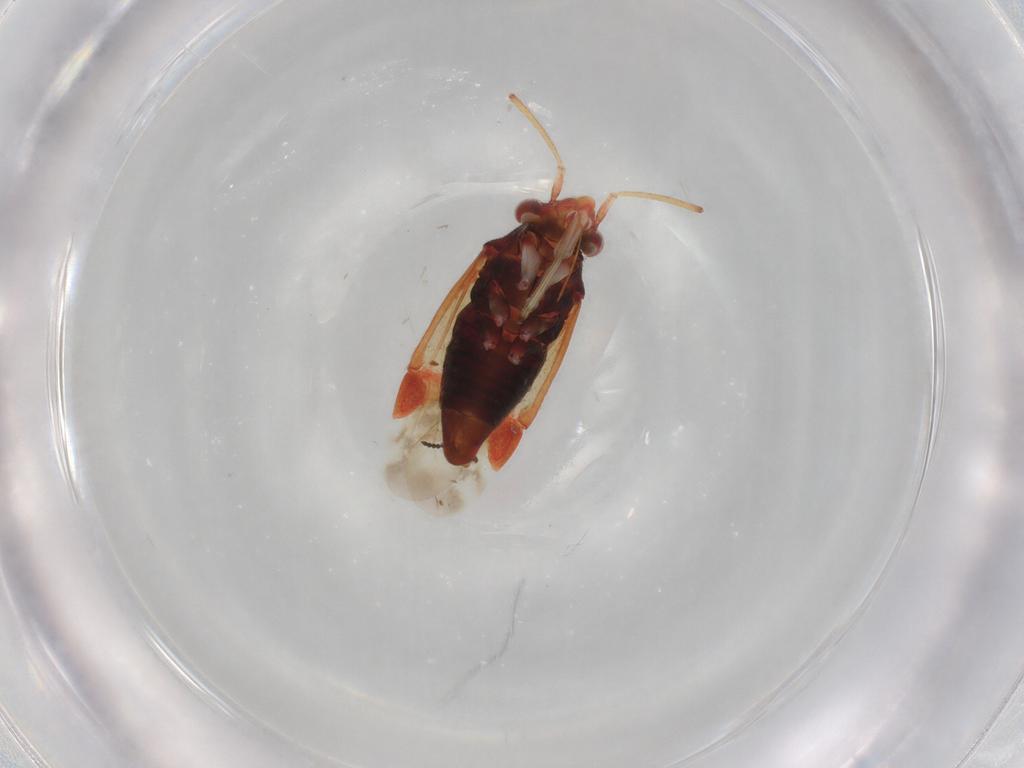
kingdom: Animalia
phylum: Arthropoda
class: Insecta
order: Hemiptera
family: Miridae
